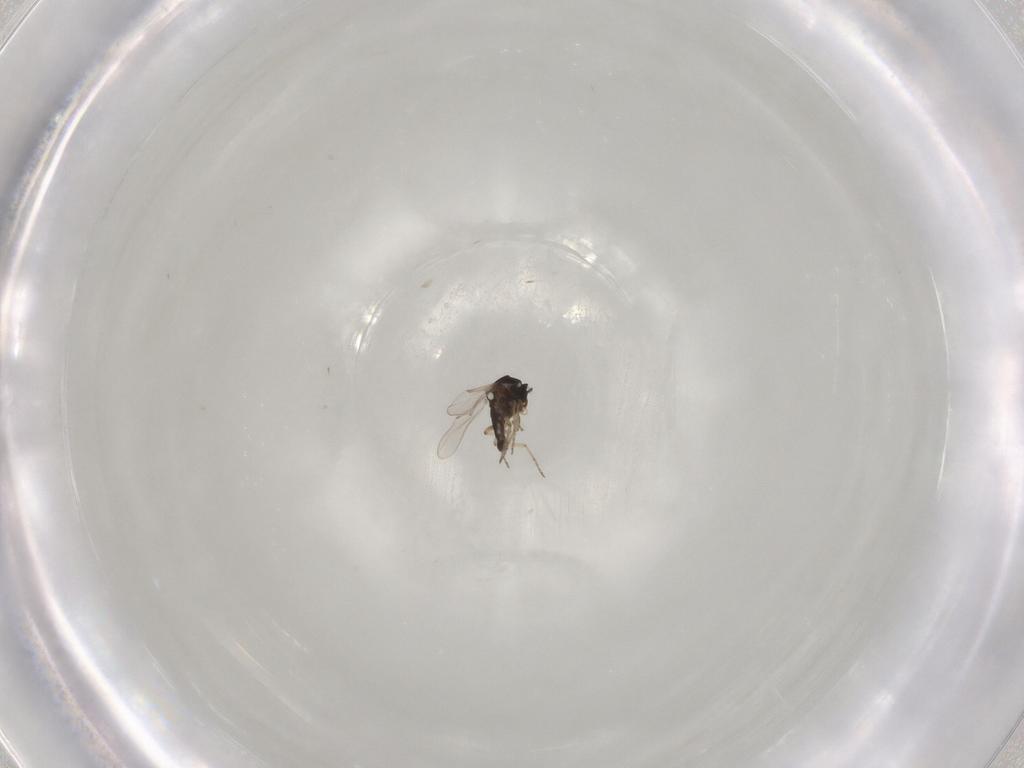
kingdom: Animalia
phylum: Arthropoda
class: Insecta
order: Diptera
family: Ceratopogonidae
